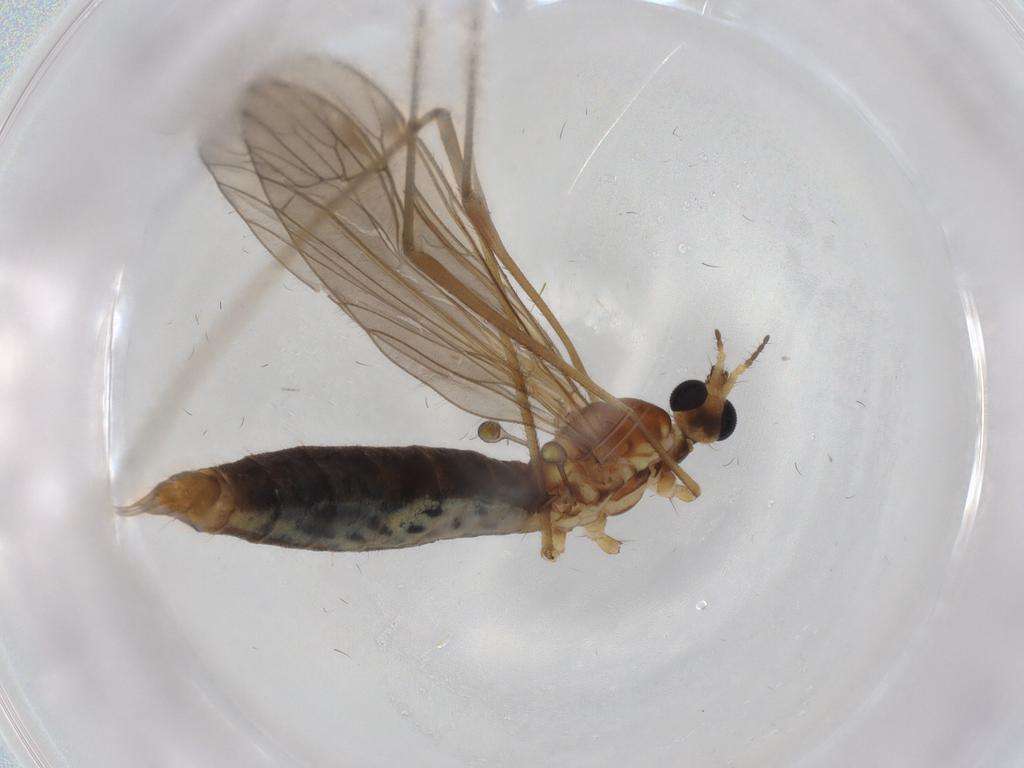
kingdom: Animalia
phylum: Arthropoda
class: Insecta
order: Diptera
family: Limoniidae
